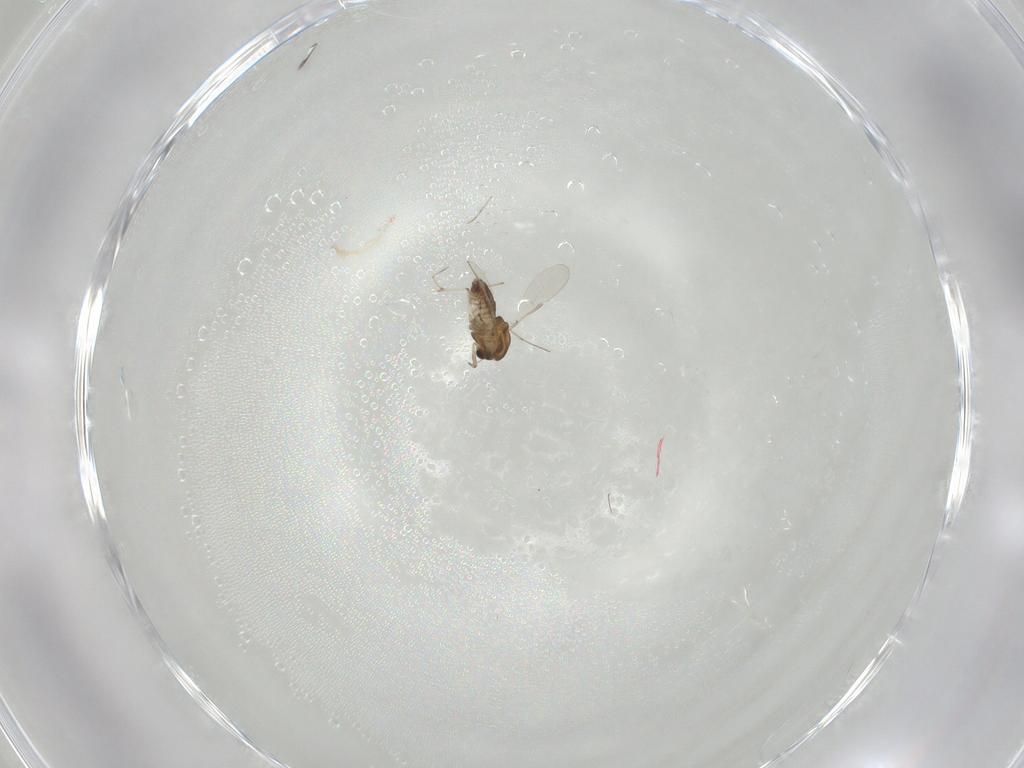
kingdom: Animalia
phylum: Arthropoda
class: Insecta
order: Diptera
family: Chironomidae
